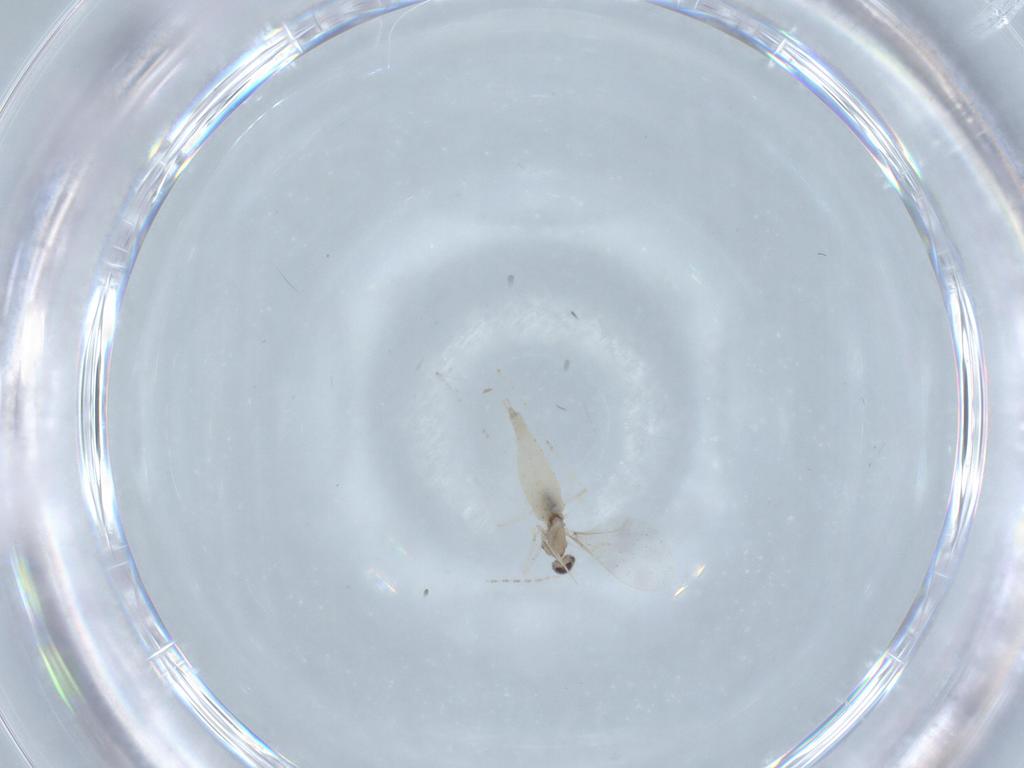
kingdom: Animalia
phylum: Arthropoda
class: Insecta
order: Diptera
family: Cecidomyiidae
